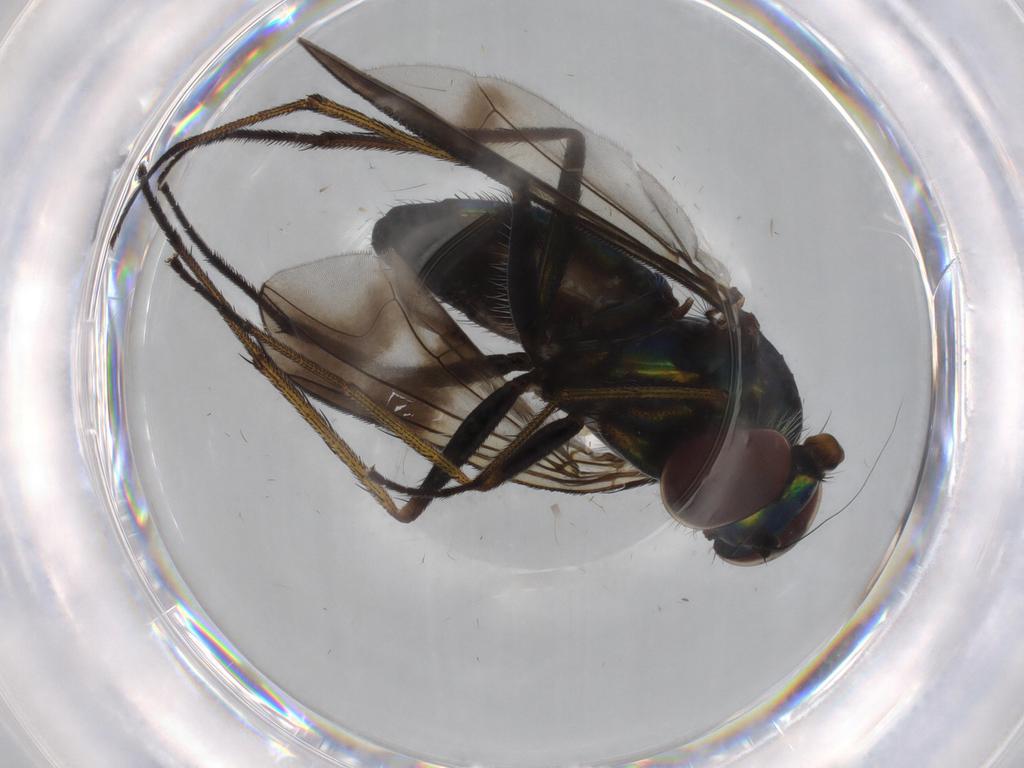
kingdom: Animalia
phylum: Arthropoda
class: Insecta
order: Diptera
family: Dolichopodidae
